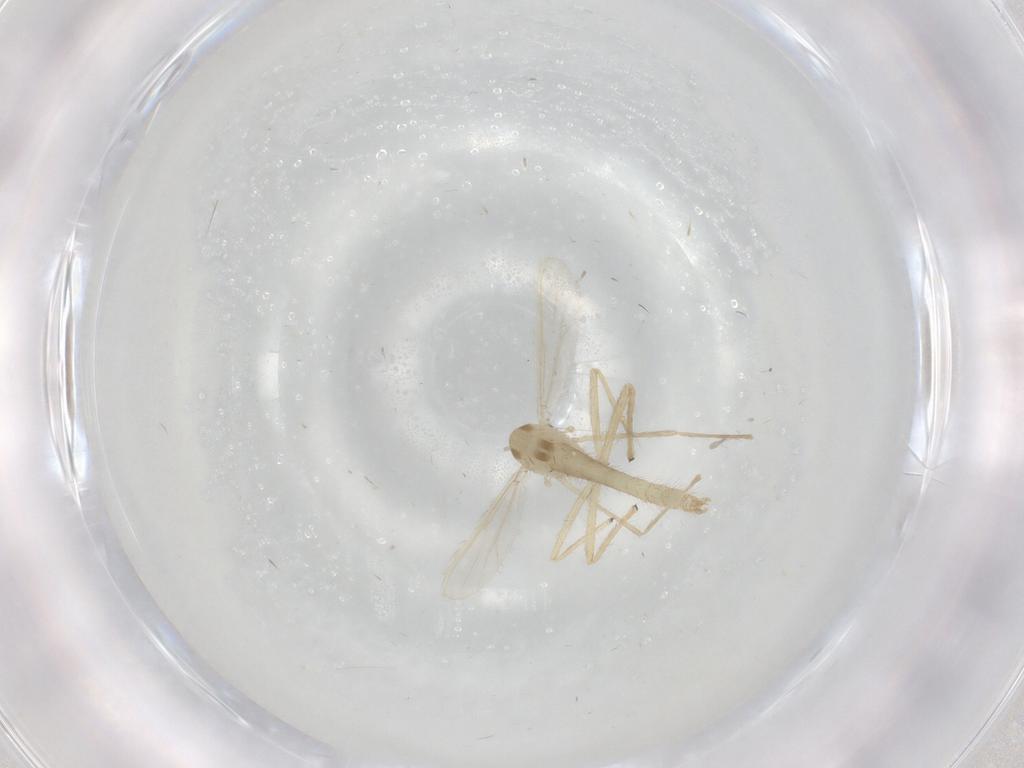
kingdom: Animalia
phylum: Arthropoda
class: Insecta
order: Diptera
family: Chironomidae
